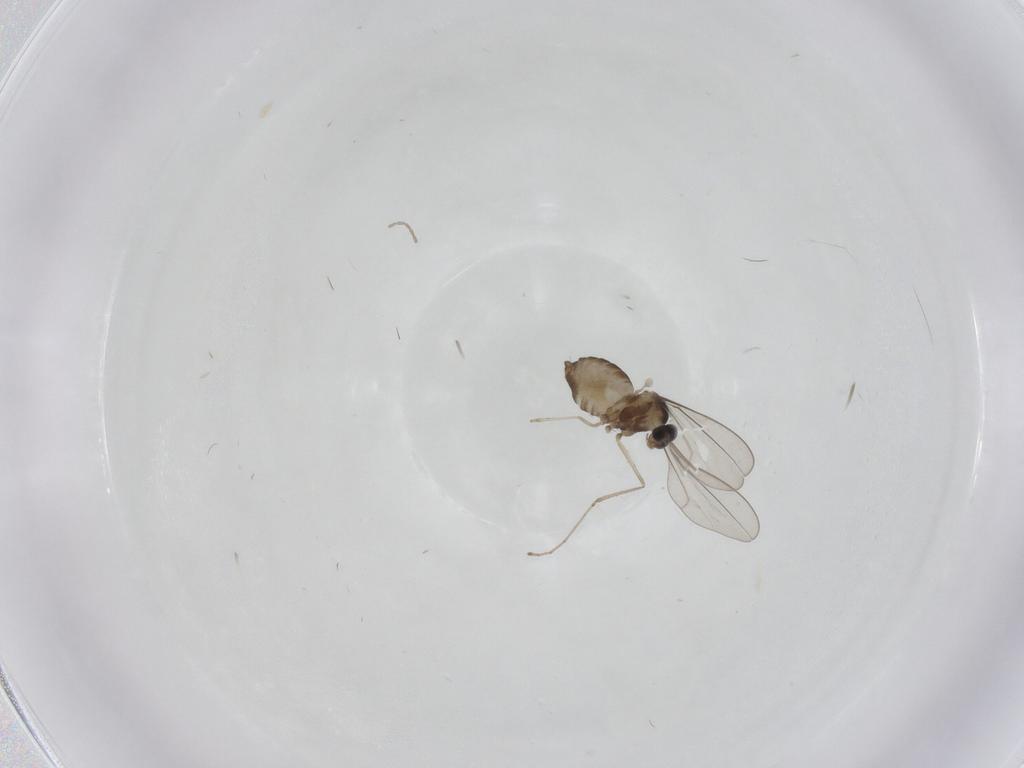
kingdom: Animalia
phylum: Arthropoda
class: Insecta
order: Diptera
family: Cecidomyiidae
